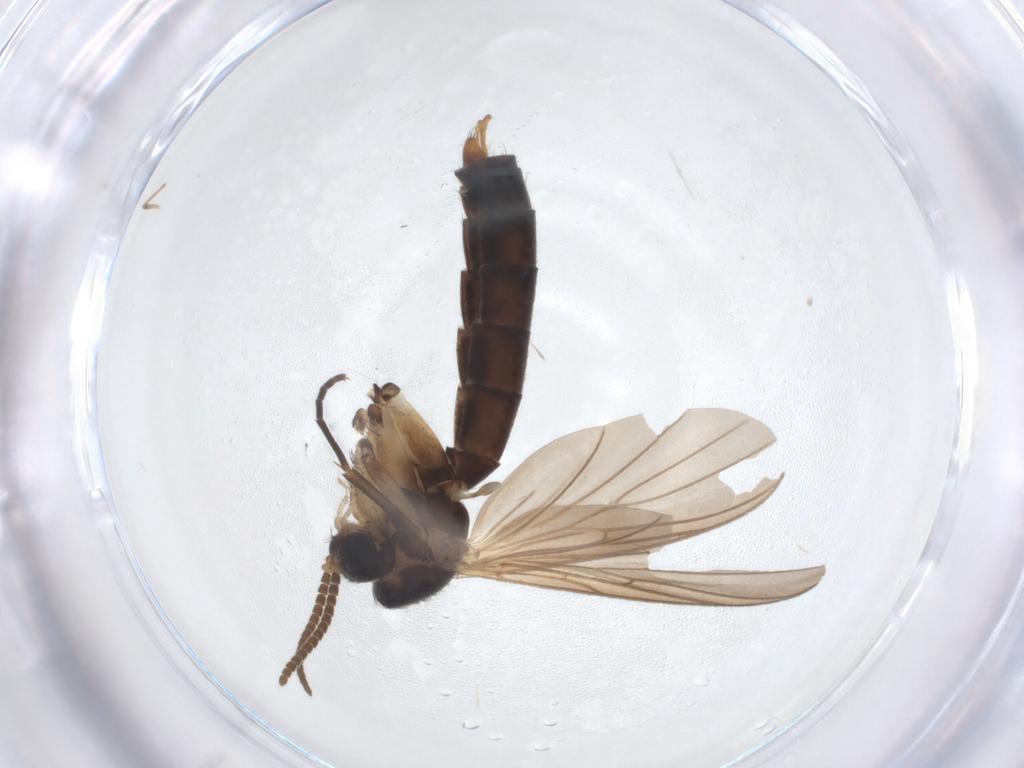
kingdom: Animalia
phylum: Arthropoda
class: Insecta
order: Diptera
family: Mycetophilidae
